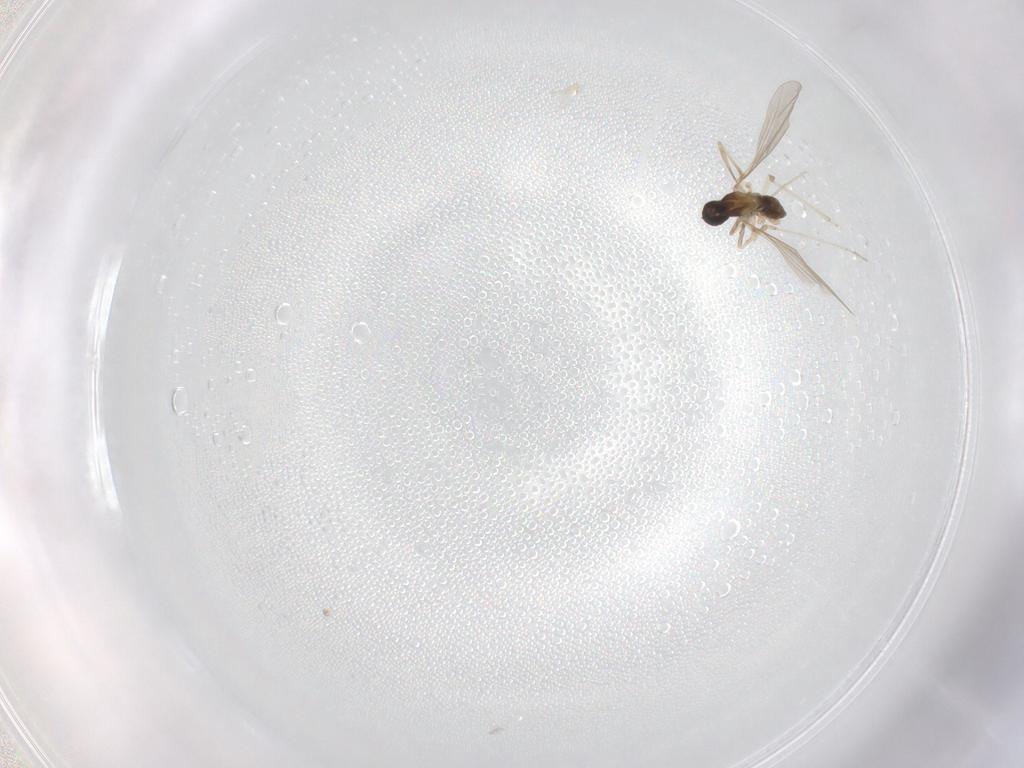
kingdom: Animalia
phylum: Arthropoda
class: Insecta
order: Diptera
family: Cecidomyiidae
